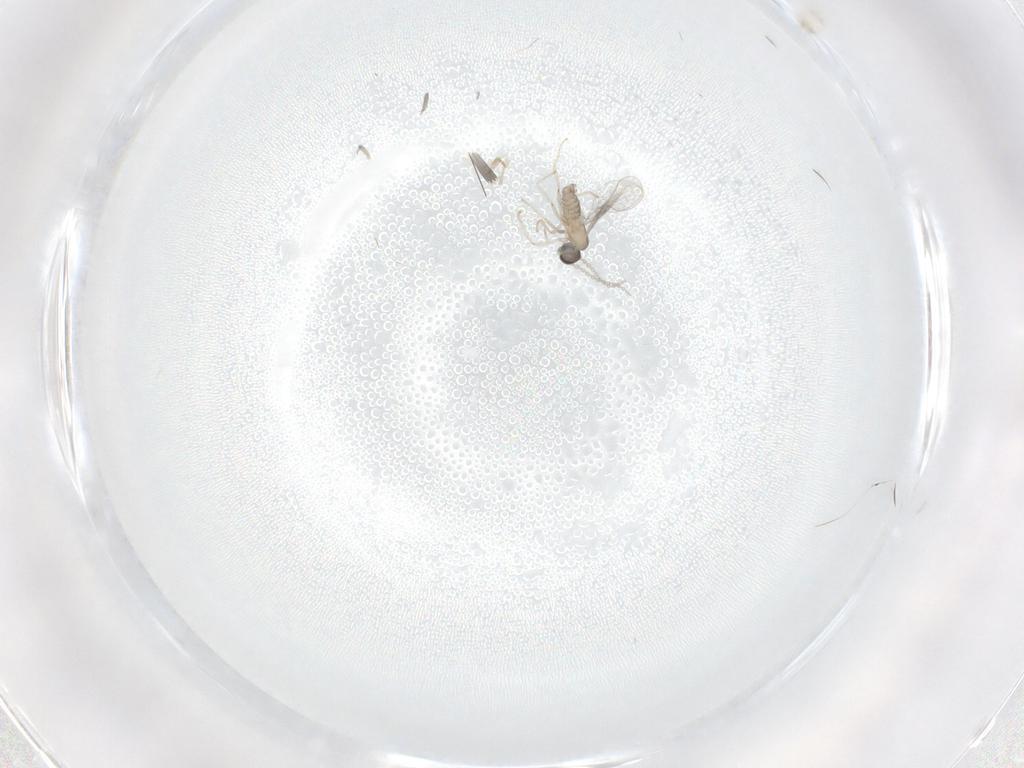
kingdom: Animalia
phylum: Arthropoda
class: Insecta
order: Diptera
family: Cecidomyiidae
